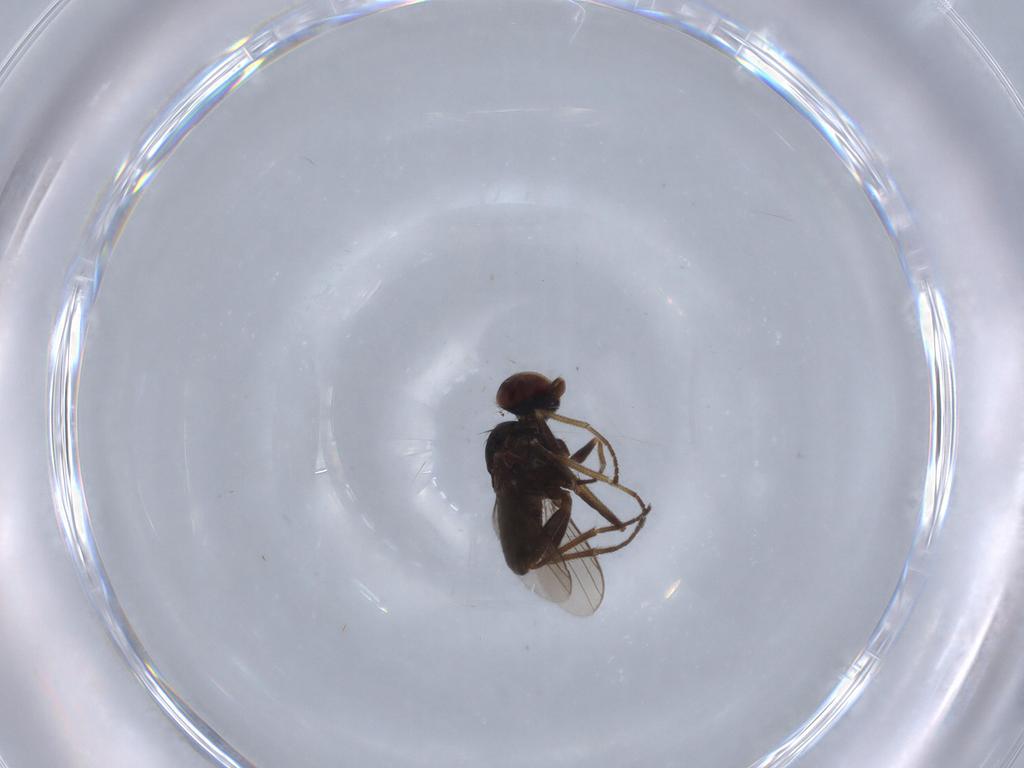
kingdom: Animalia
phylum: Arthropoda
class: Insecta
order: Diptera
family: Dolichopodidae
